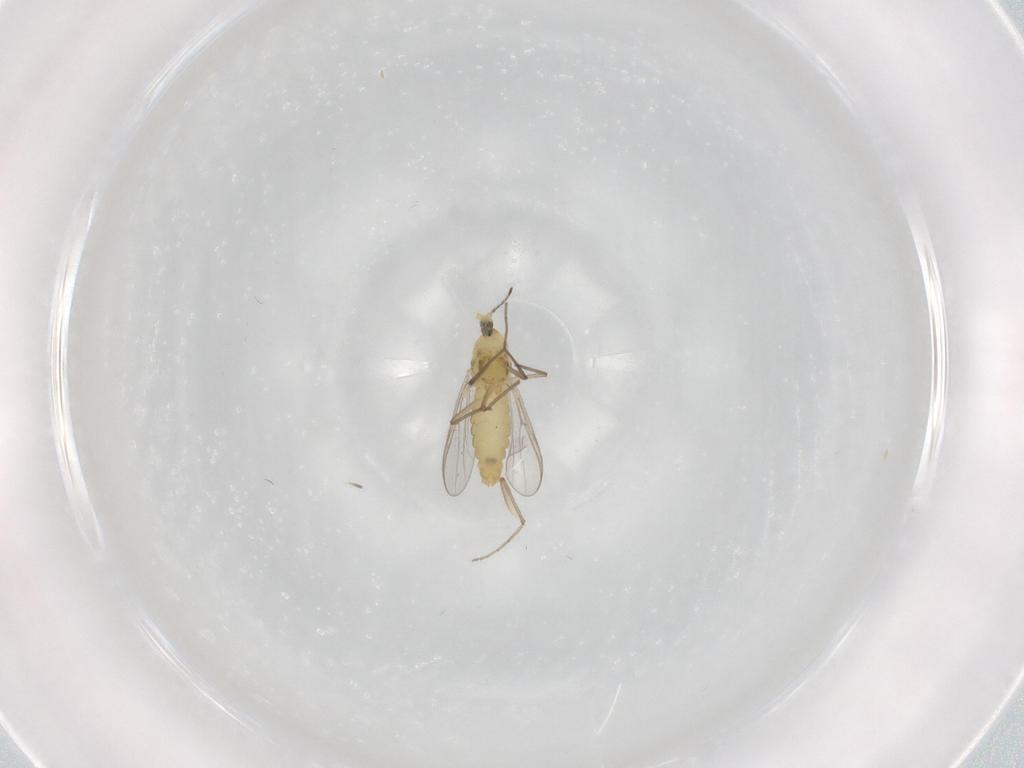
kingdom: Animalia
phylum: Arthropoda
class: Insecta
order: Diptera
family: Chironomidae
